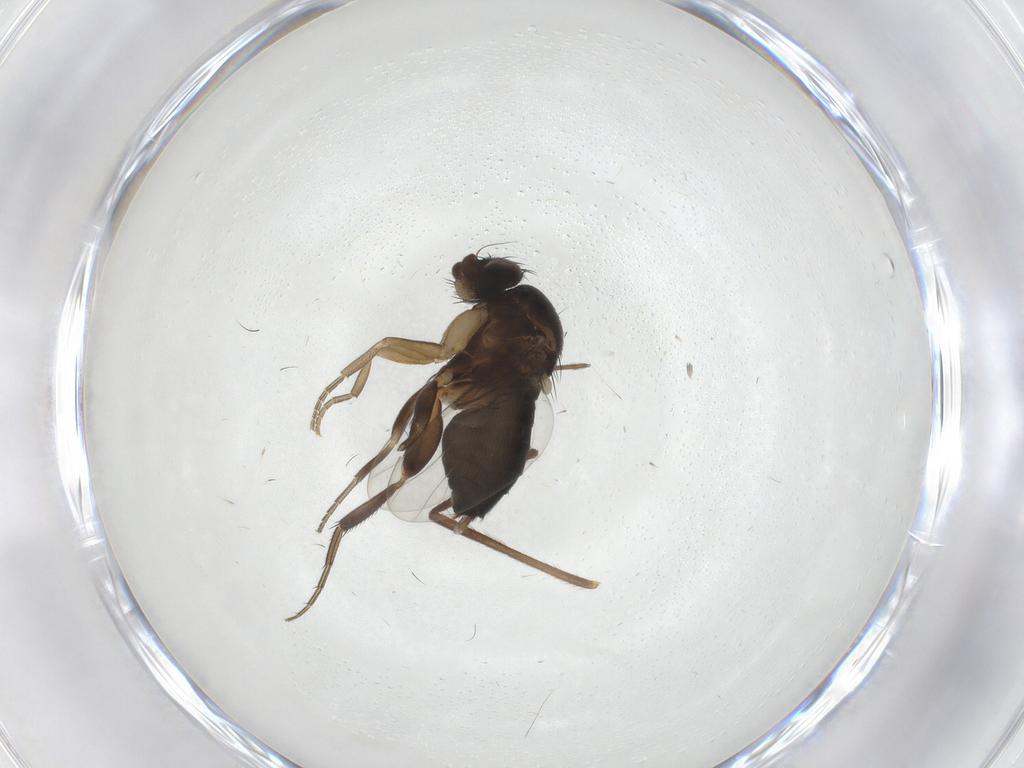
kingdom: Animalia
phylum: Arthropoda
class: Insecta
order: Diptera
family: Phoridae
